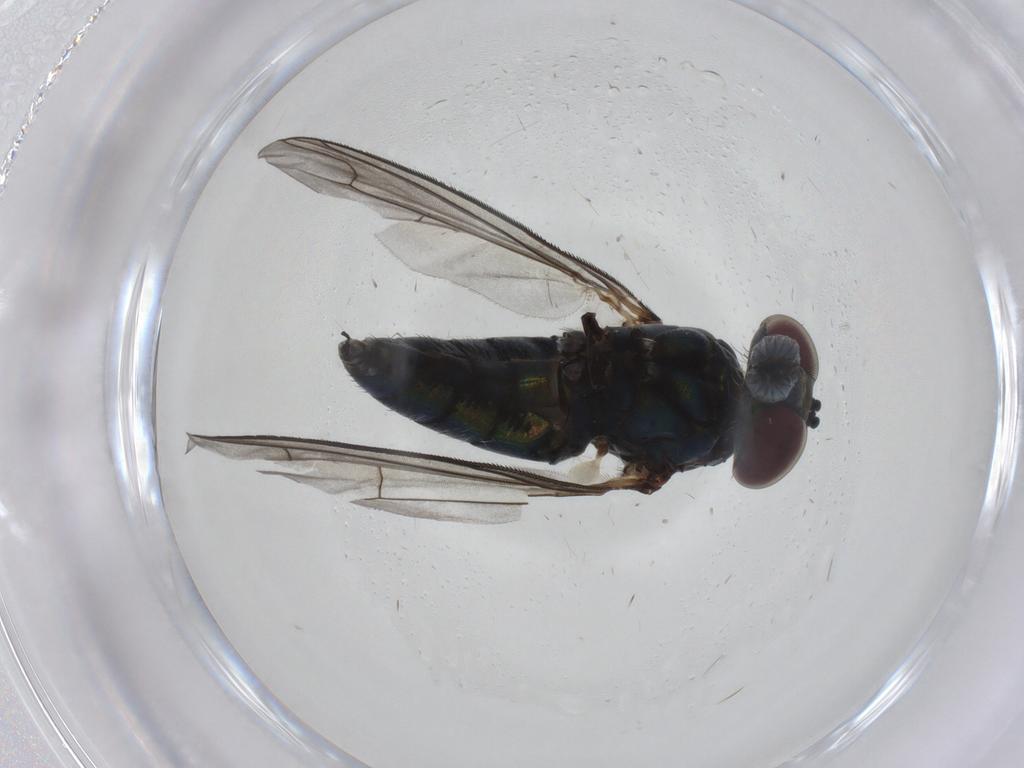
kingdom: Animalia
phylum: Arthropoda
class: Insecta
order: Diptera
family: Dolichopodidae
